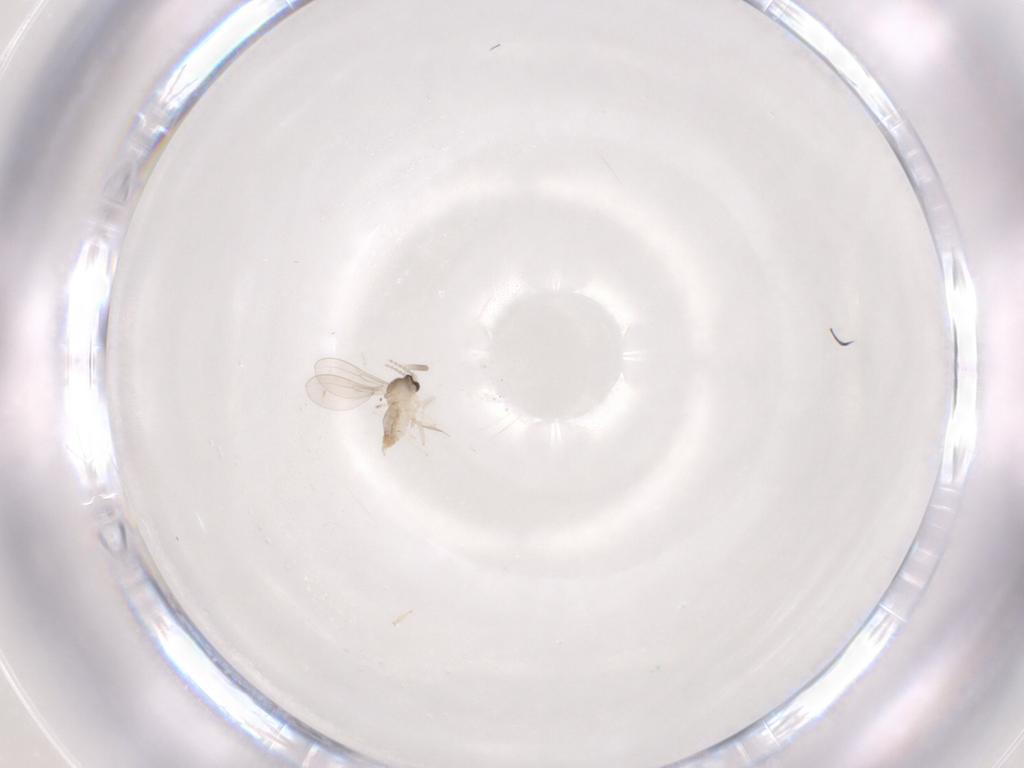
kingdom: Animalia
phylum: Arthropoda
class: Insecta
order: Diptera
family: Cecidomyiidae
